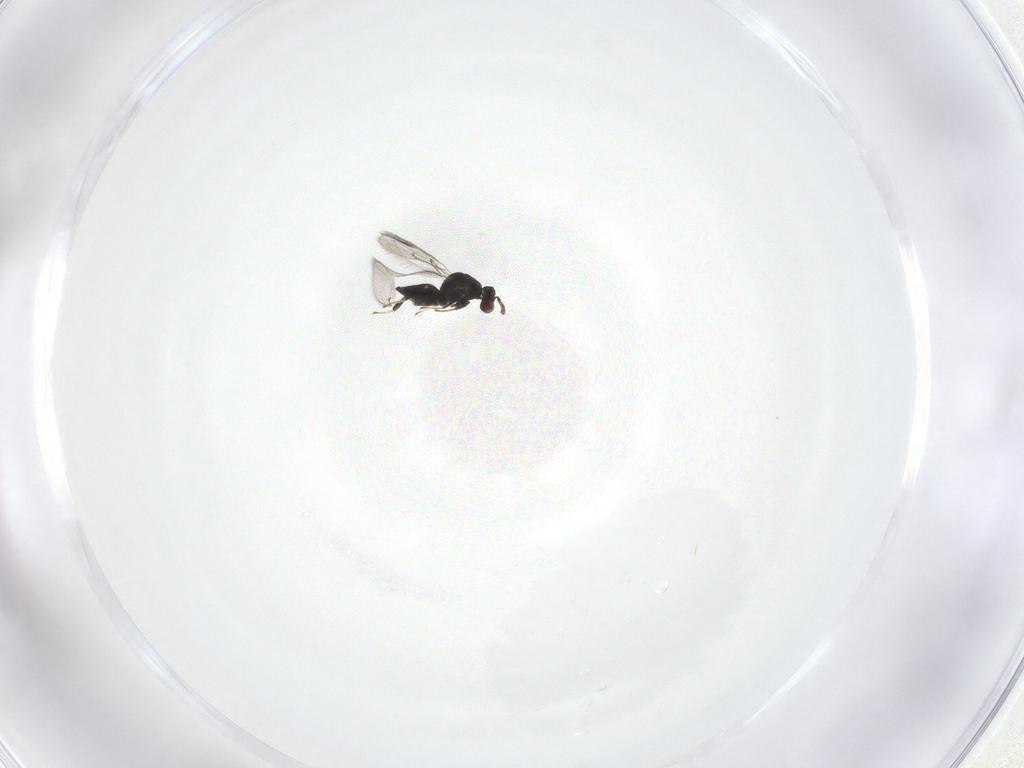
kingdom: Animalia
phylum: Arthropoda
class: Insecta
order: Hymenoptera
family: Eulophidae
